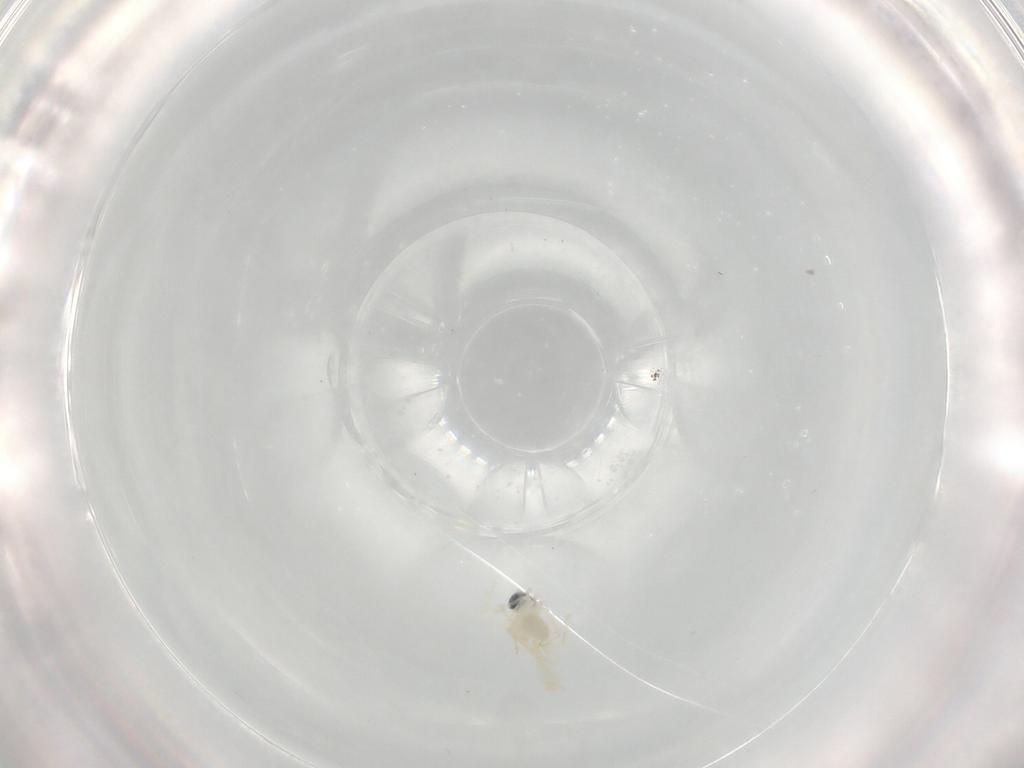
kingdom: Animalia
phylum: Arthropoda
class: Insecta
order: Diptera
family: Cecidomyiidae
